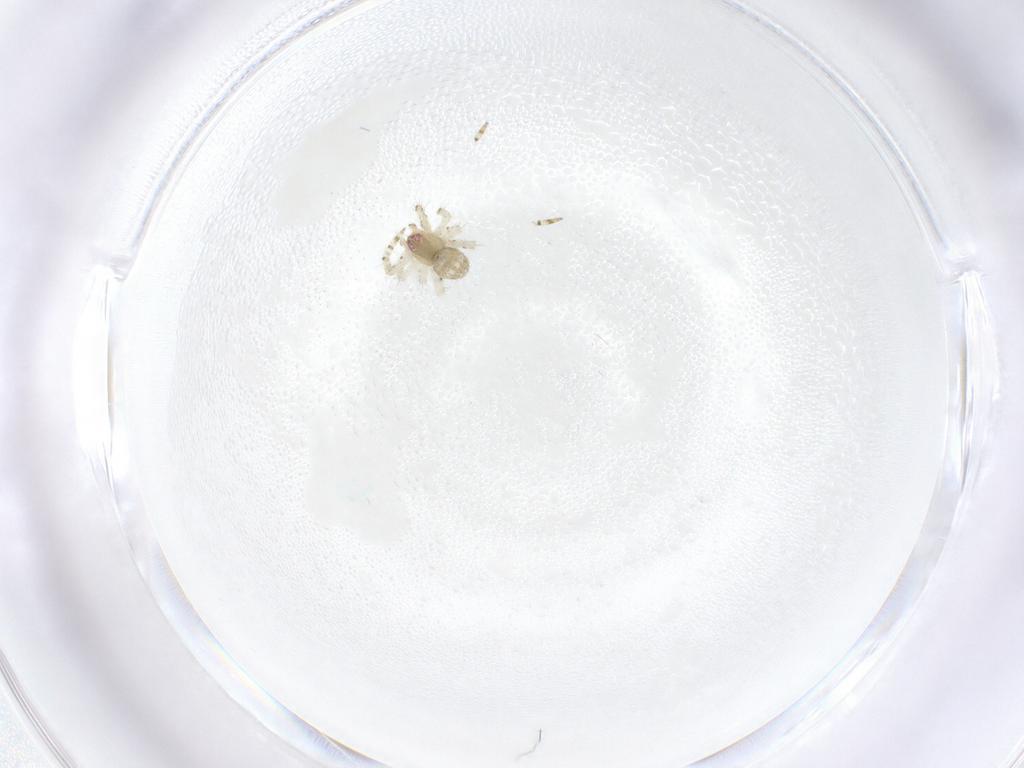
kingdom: Animalia
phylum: Arthropoda
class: Arachnida
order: Araneae
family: Theridiidae
